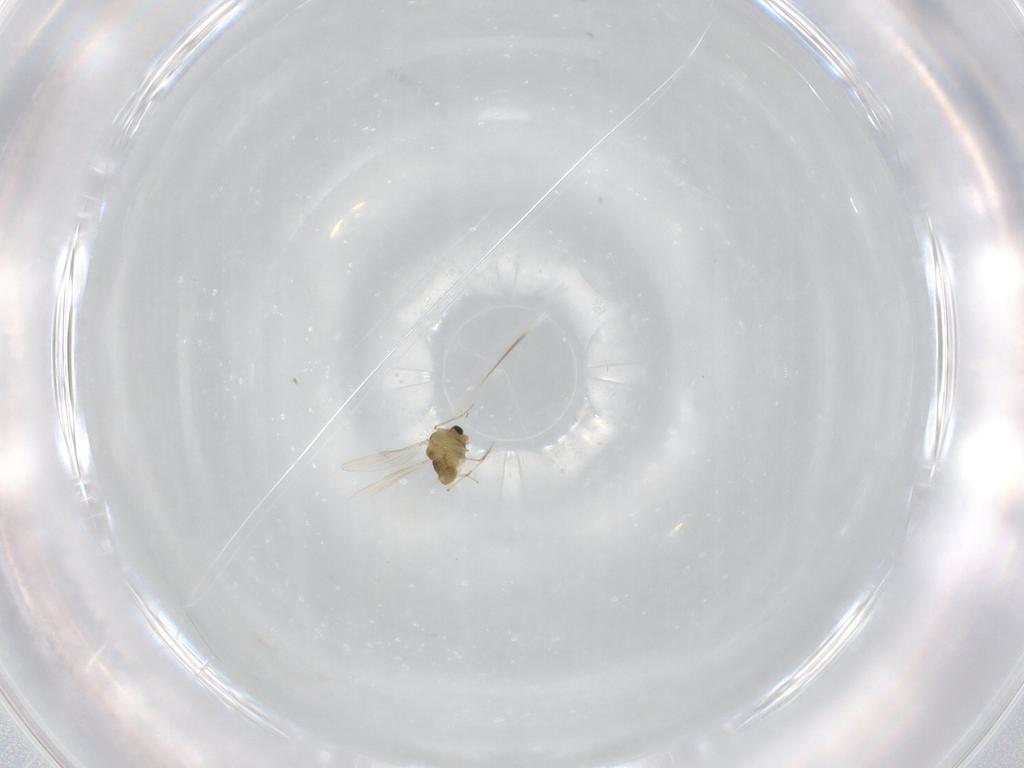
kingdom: Animalia
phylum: Arthropoda
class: Insecta
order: Diptera
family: Chironomidae
